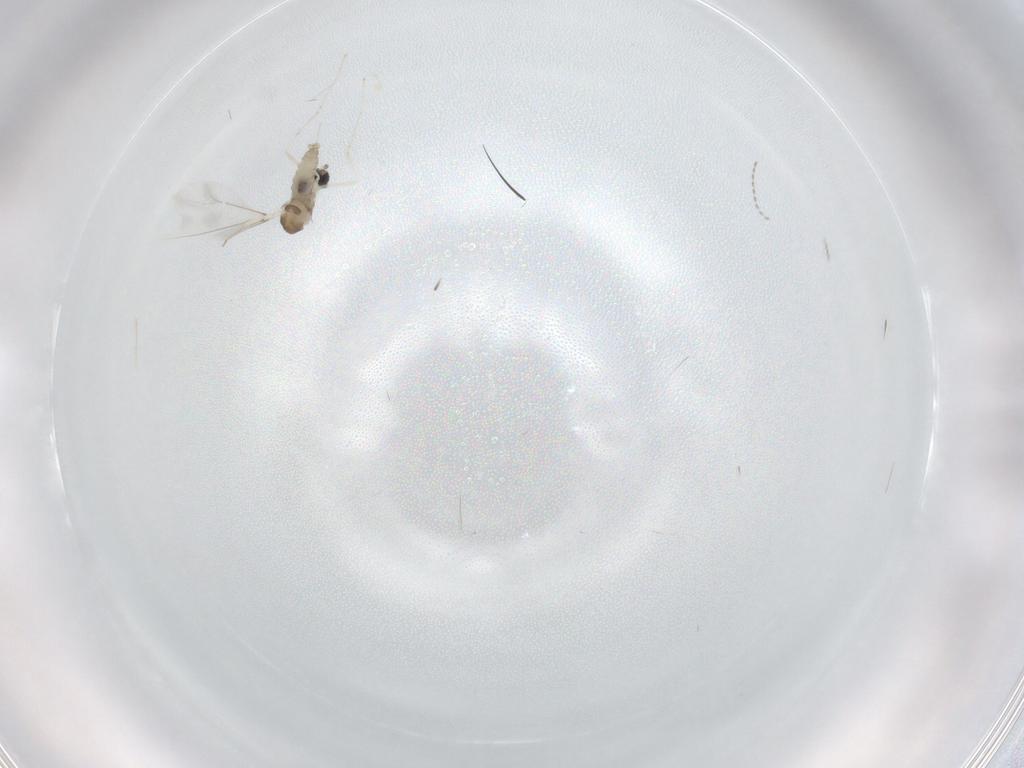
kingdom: Animalia
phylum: Arthropoda
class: Insecta
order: Diptera
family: Cecidomyiidae
